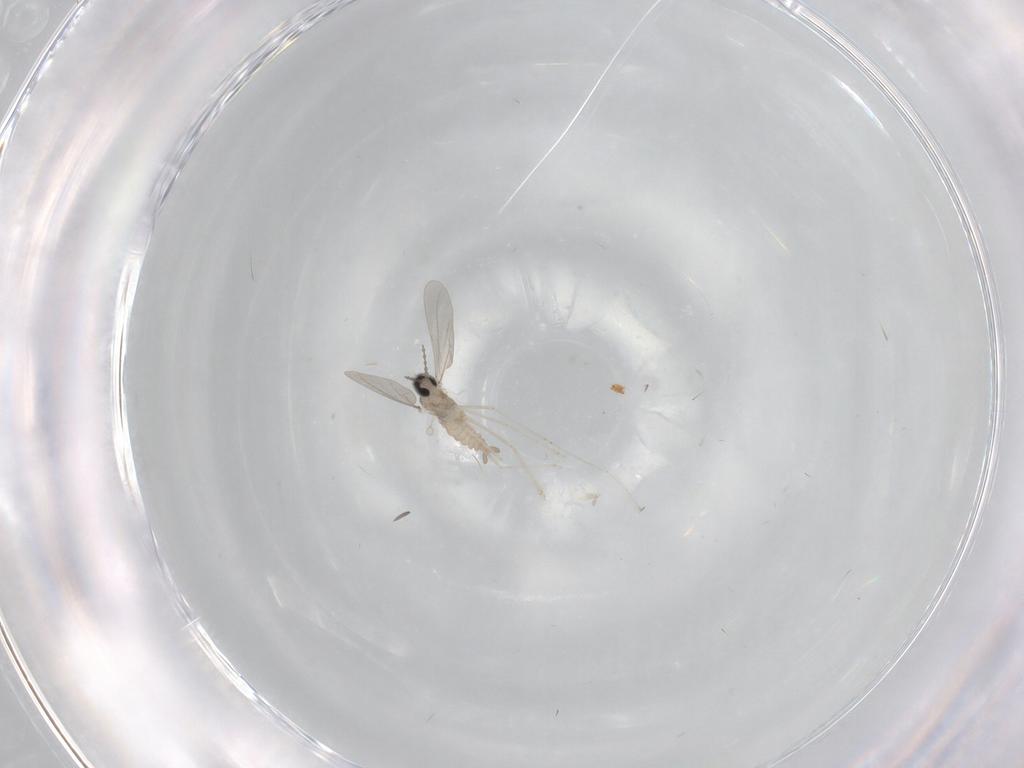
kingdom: Animalia
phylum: Arthropoda
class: Insecta
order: Diptera
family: Cecidomyiidae
